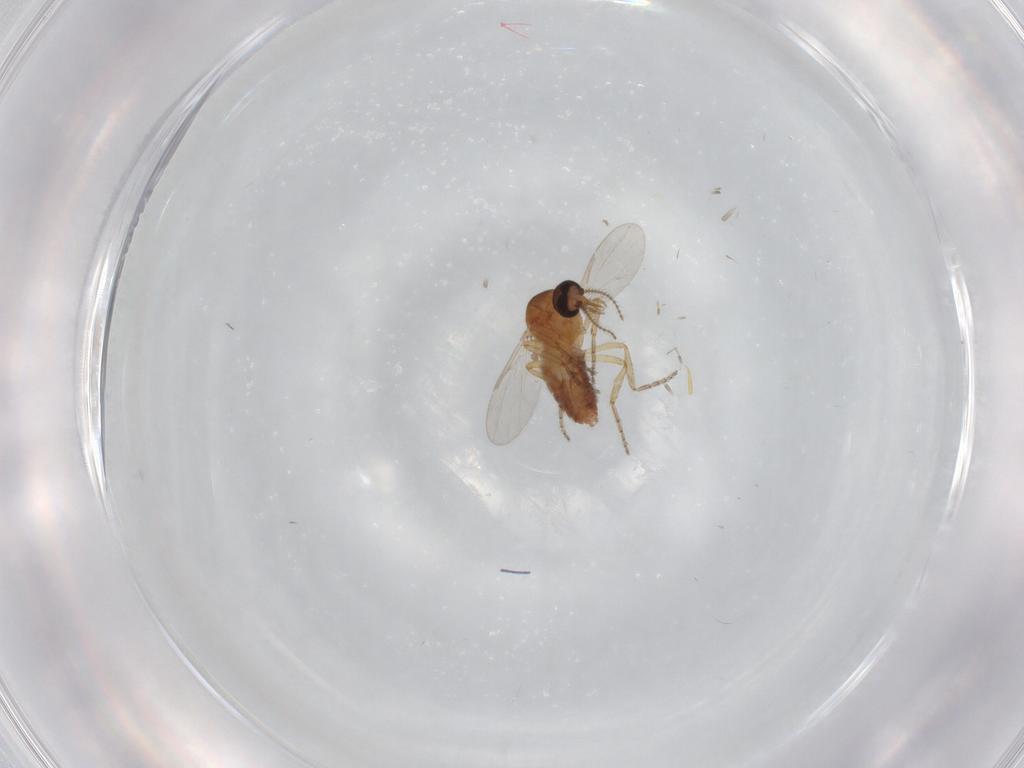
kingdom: Animalia
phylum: Arthropoda
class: Insecta
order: Diptera
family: Ceratopogonidae
